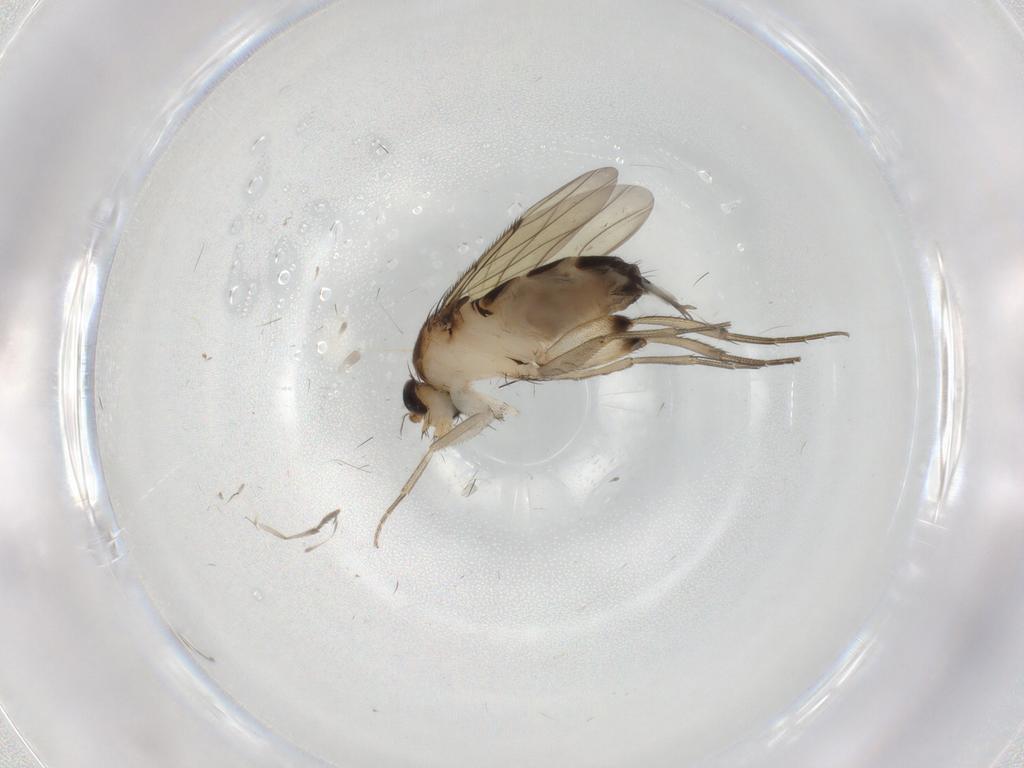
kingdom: Animalia
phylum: Arthropoda
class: Insecta
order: Diptera
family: Phoridae
